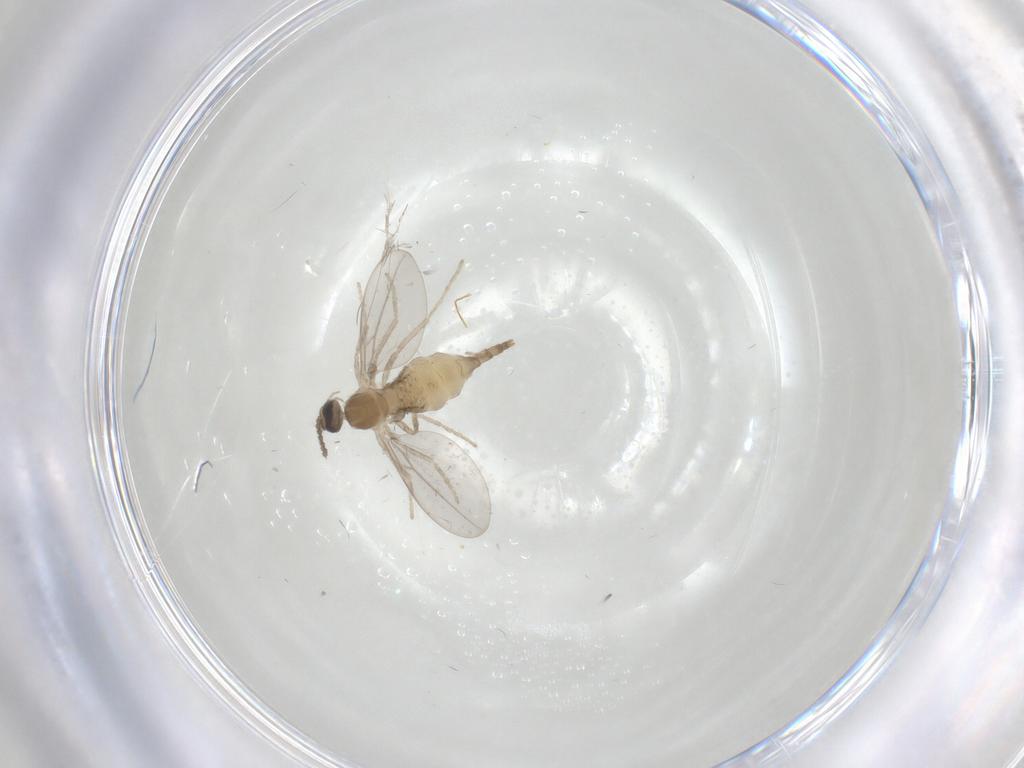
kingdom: Animalia
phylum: Arthropoda
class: Insecta
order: Diptera
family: Cecidomyiidae
